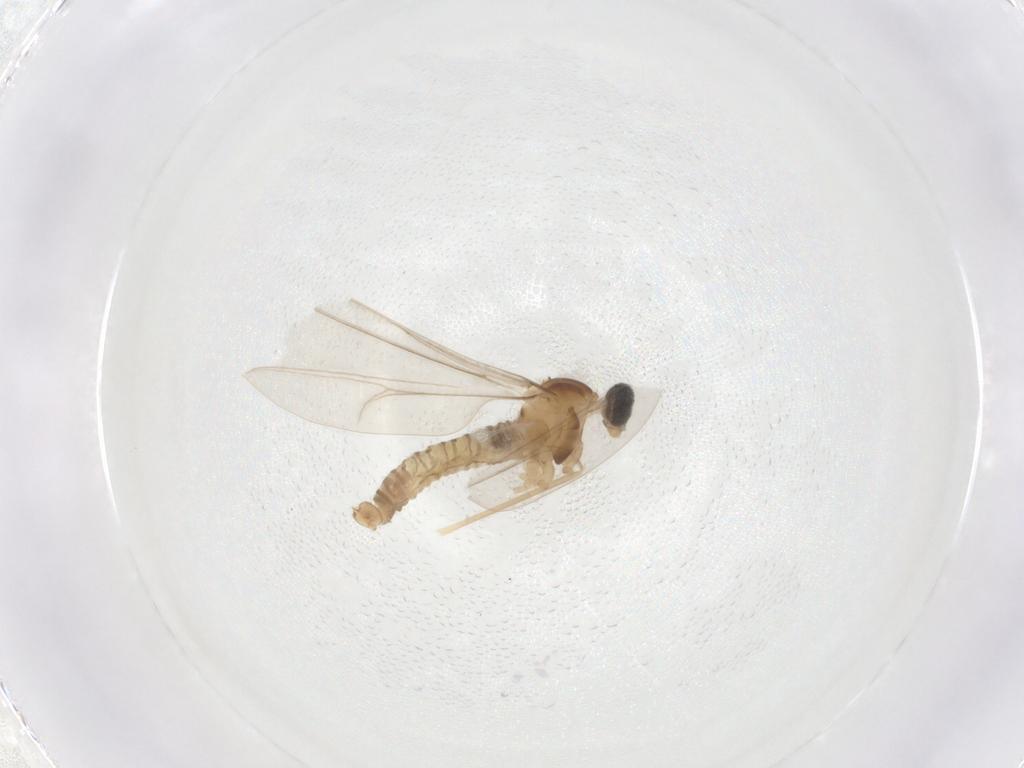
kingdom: Animalia
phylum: Arthropoda
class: Insecta
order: Diptera
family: Cecidomyiidae
